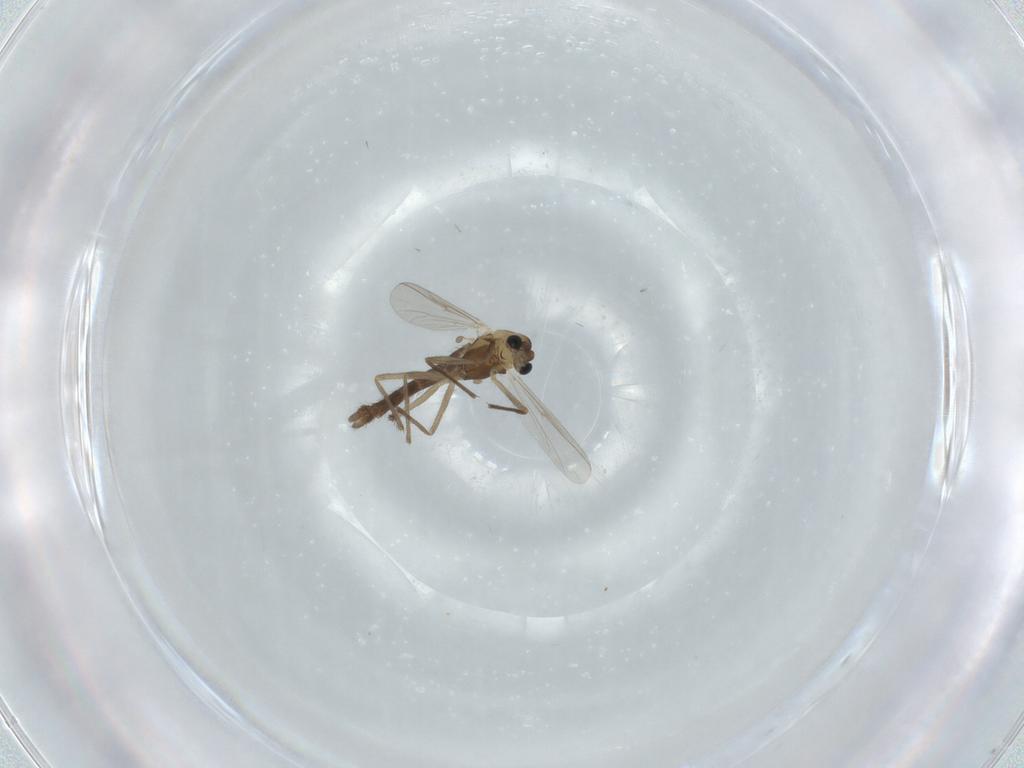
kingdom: Animalia
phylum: Arthropoda
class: Insecta
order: Diptera
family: Chironomidae
